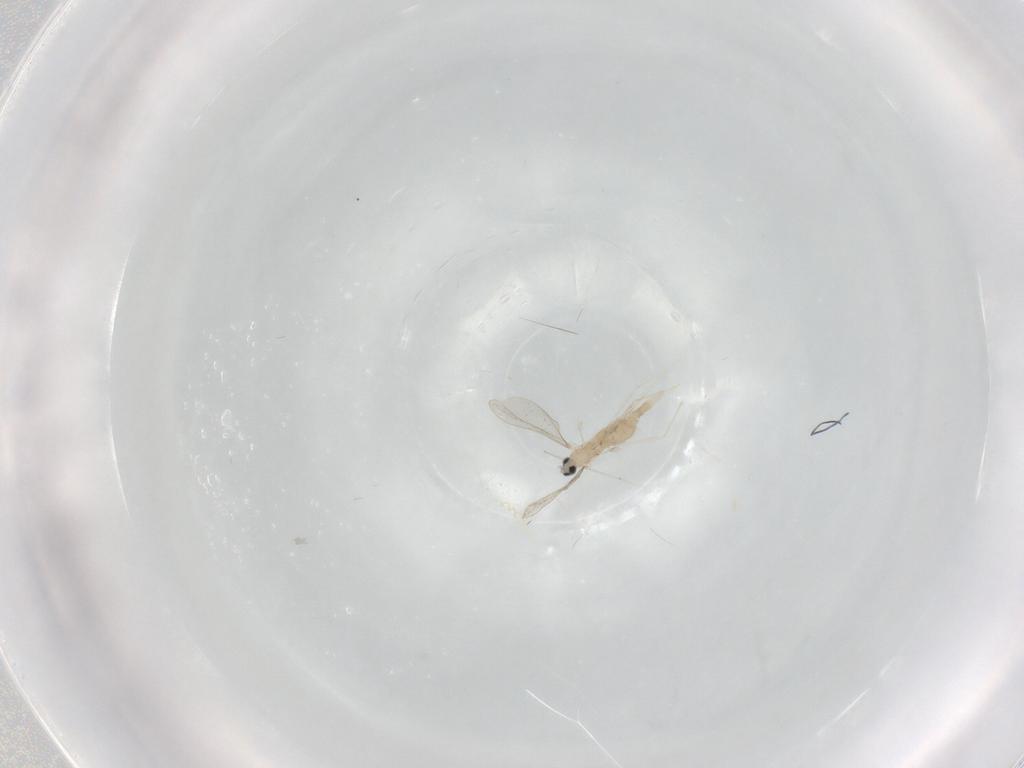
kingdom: Animalia
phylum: Arthropoda
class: Insecta
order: Diptera
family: Cecidomyiidae
